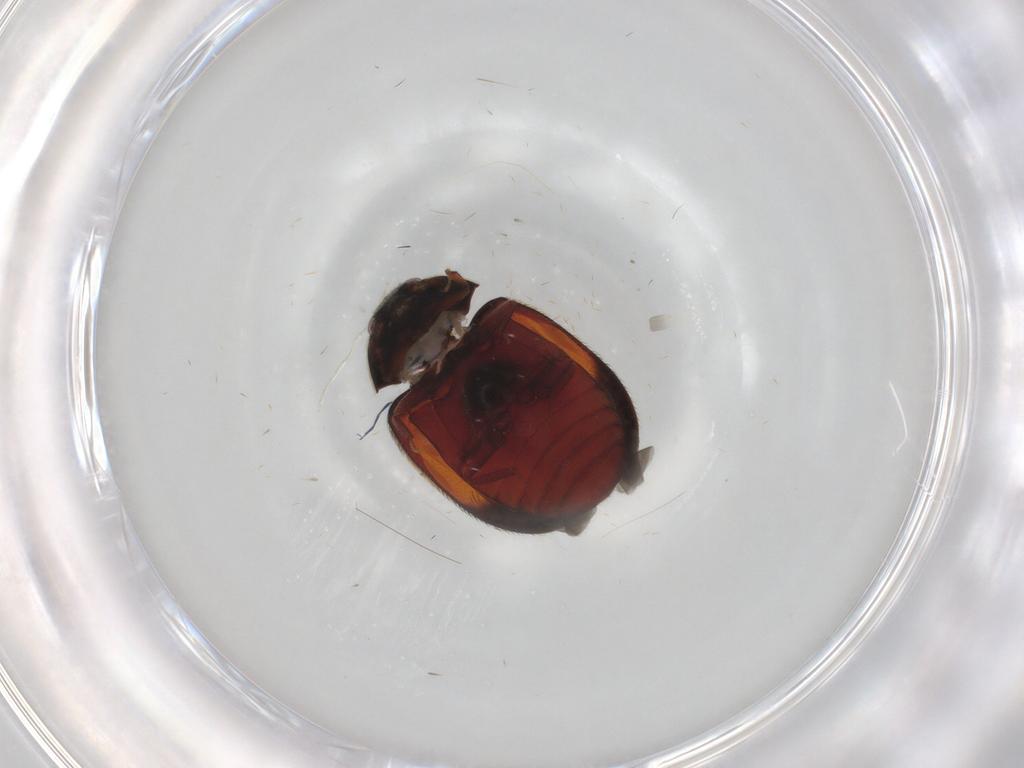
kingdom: Animalia
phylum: Arthropoda
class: Insecta
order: Coleoptera
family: Dermestidae
